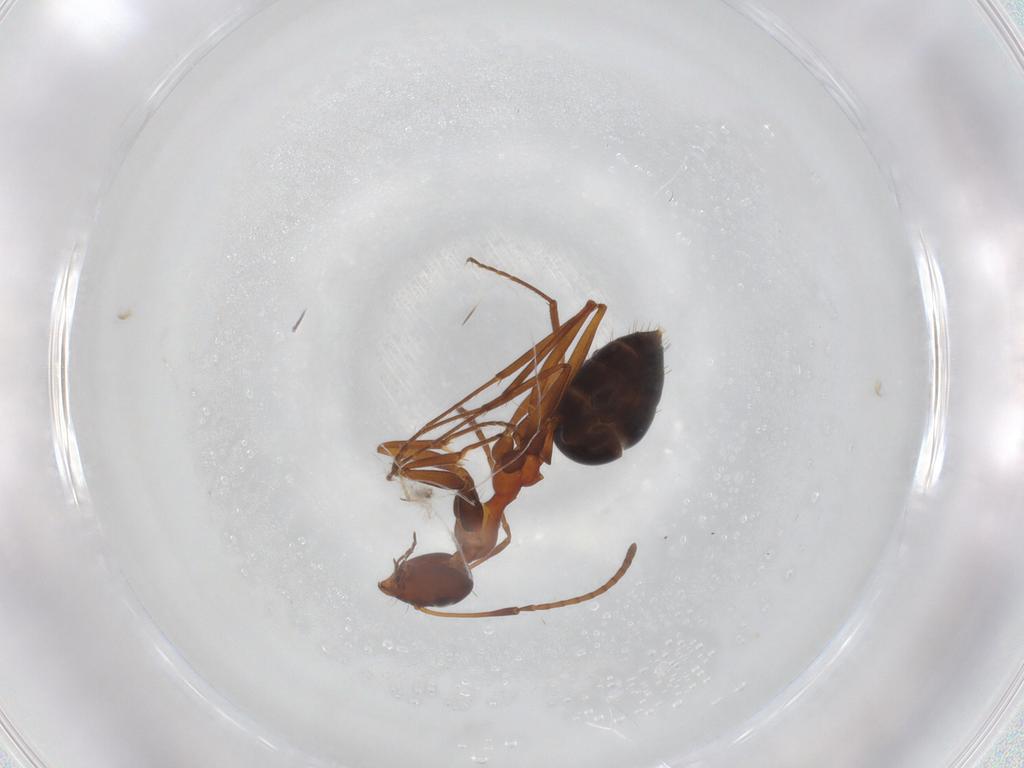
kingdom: Animalia
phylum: Arthropoda
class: Insecta
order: Hymenoptera
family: Formicidae
